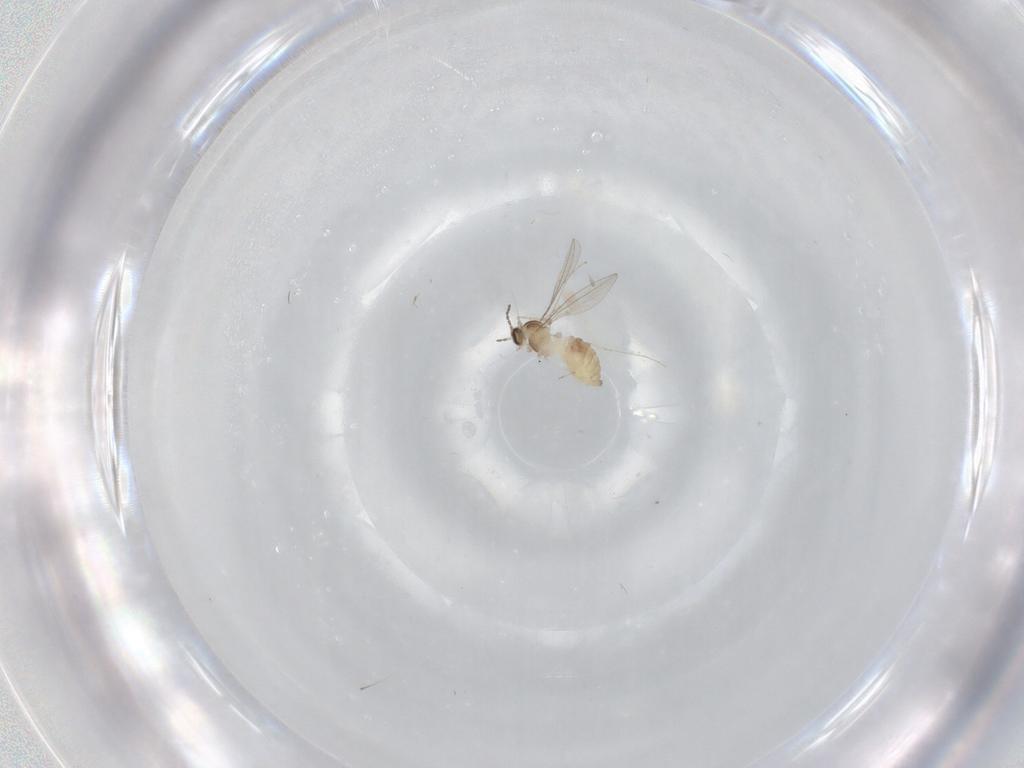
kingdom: Animalia
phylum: Arthropoda
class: Insecta
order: Diptera
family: Cecidomyiidae
